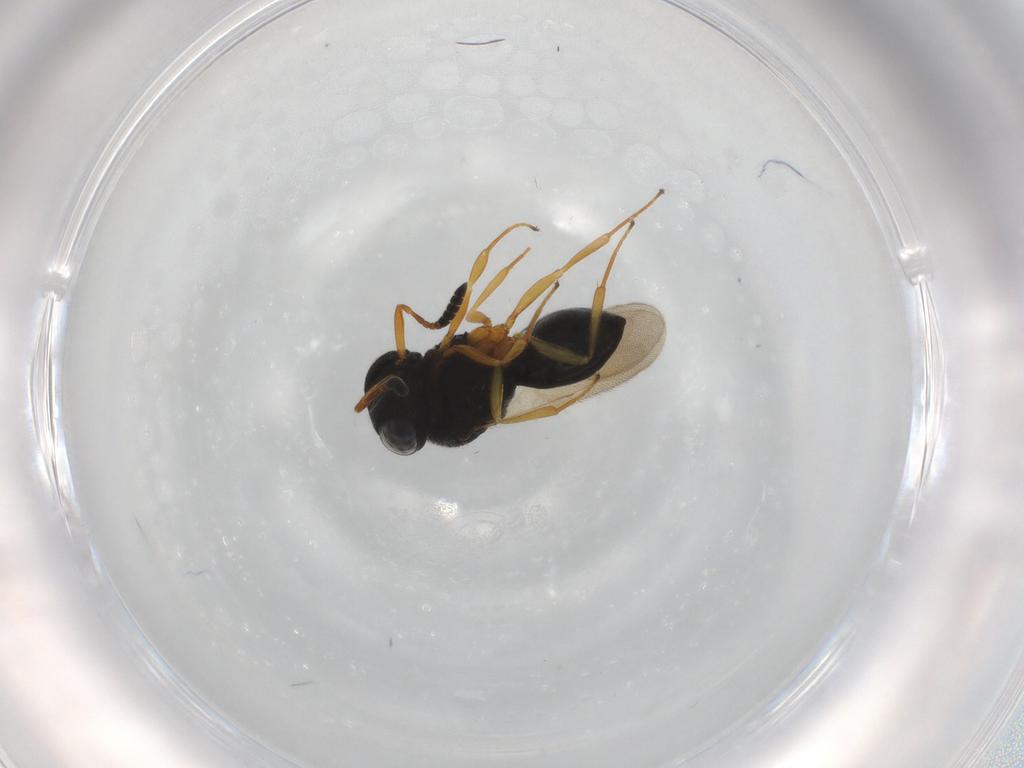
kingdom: Animalia
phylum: Arthropoda
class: Insecta
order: Hymenoptera
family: Scelionidae
